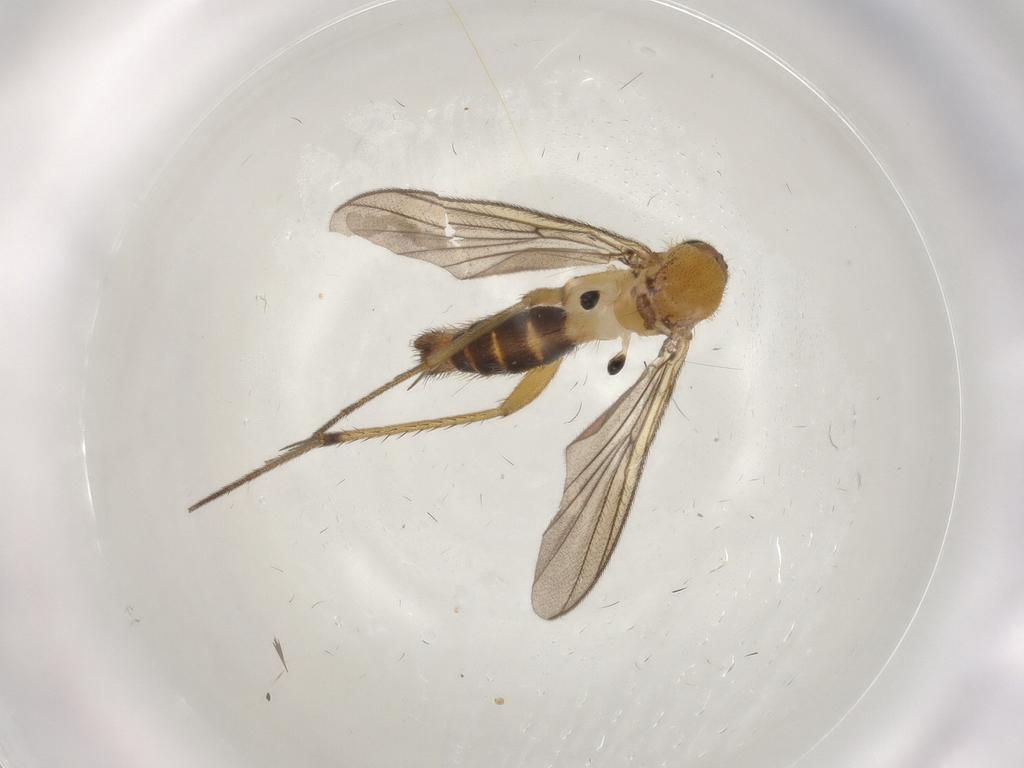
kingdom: Animalia
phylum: Arthropoda
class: Insecta
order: Diptera
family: Mycetophilidae
